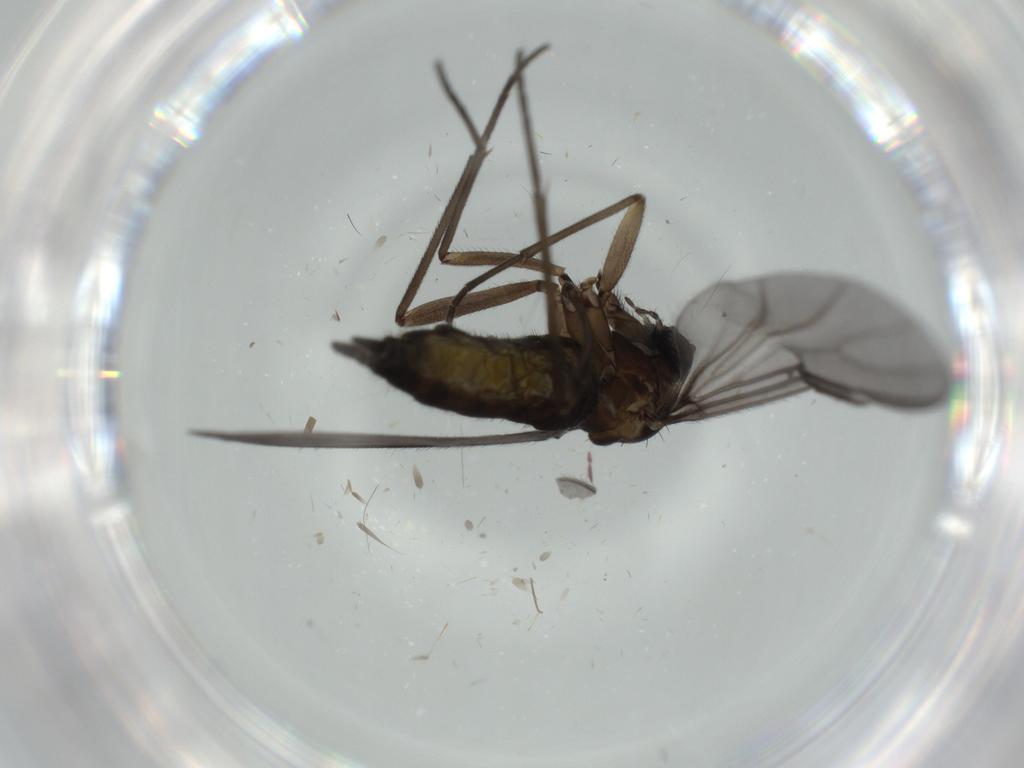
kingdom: Animalia
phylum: Arthropoda
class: Insecta
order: Diptera
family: Sciaridae
